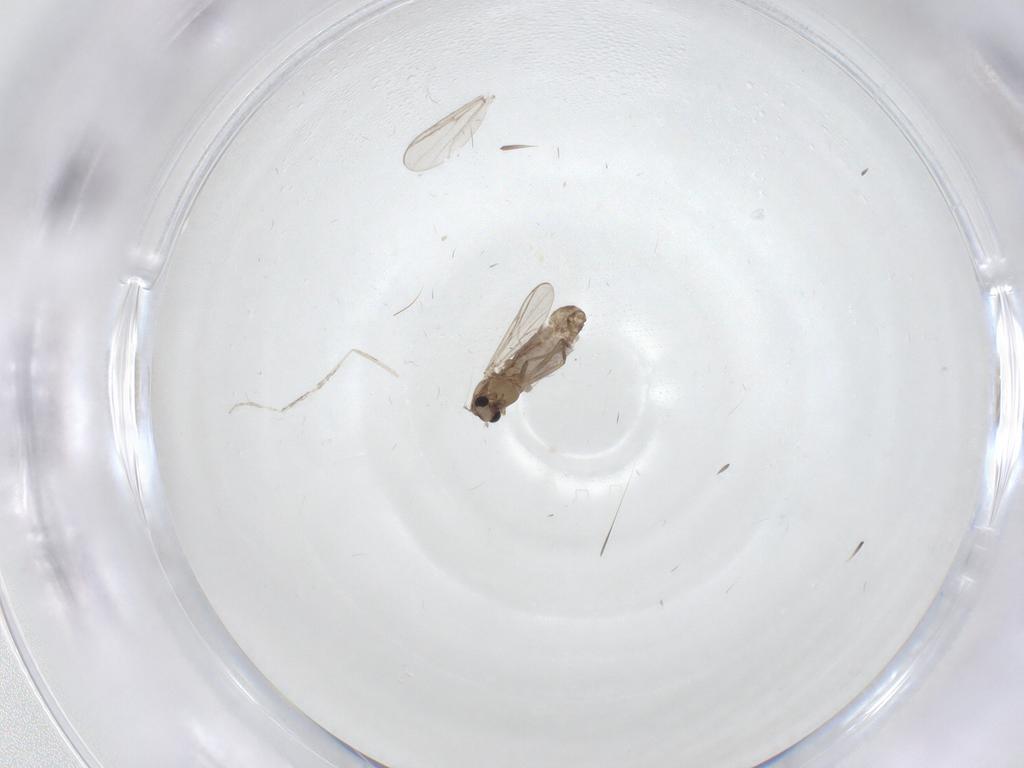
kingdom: Animalia
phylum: Arthropoda
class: Insecta
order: Diptera
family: Chironomidae
